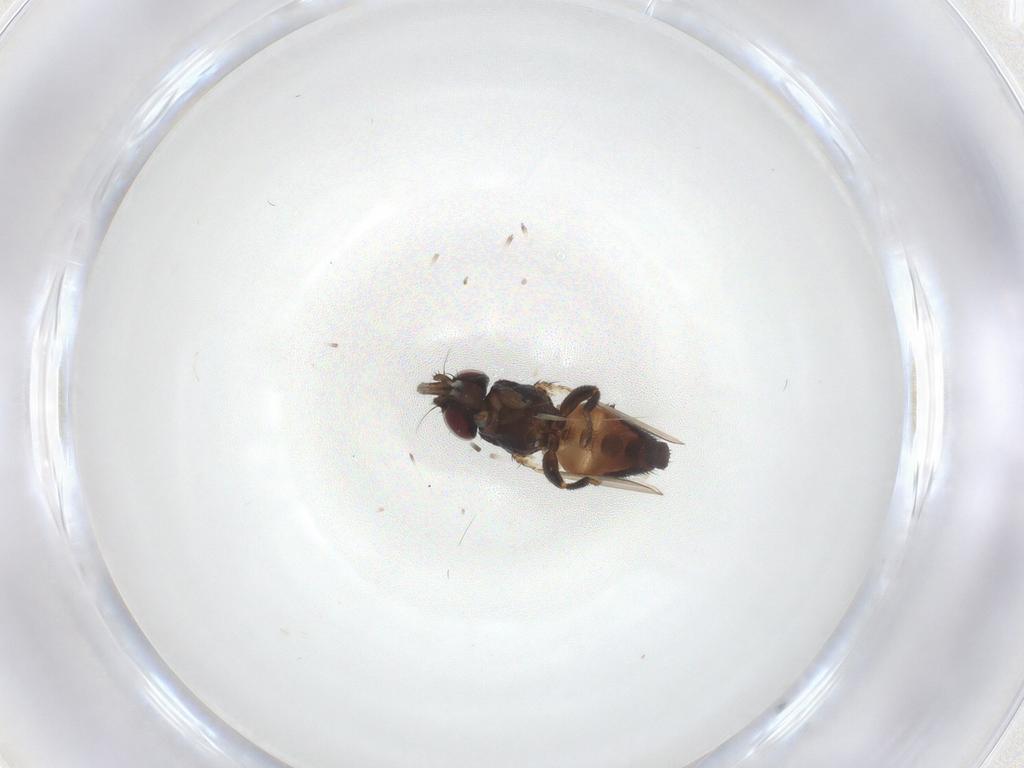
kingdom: Animalia
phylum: Arthropoda
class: Insecta
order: Diptera
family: Milichiidae
